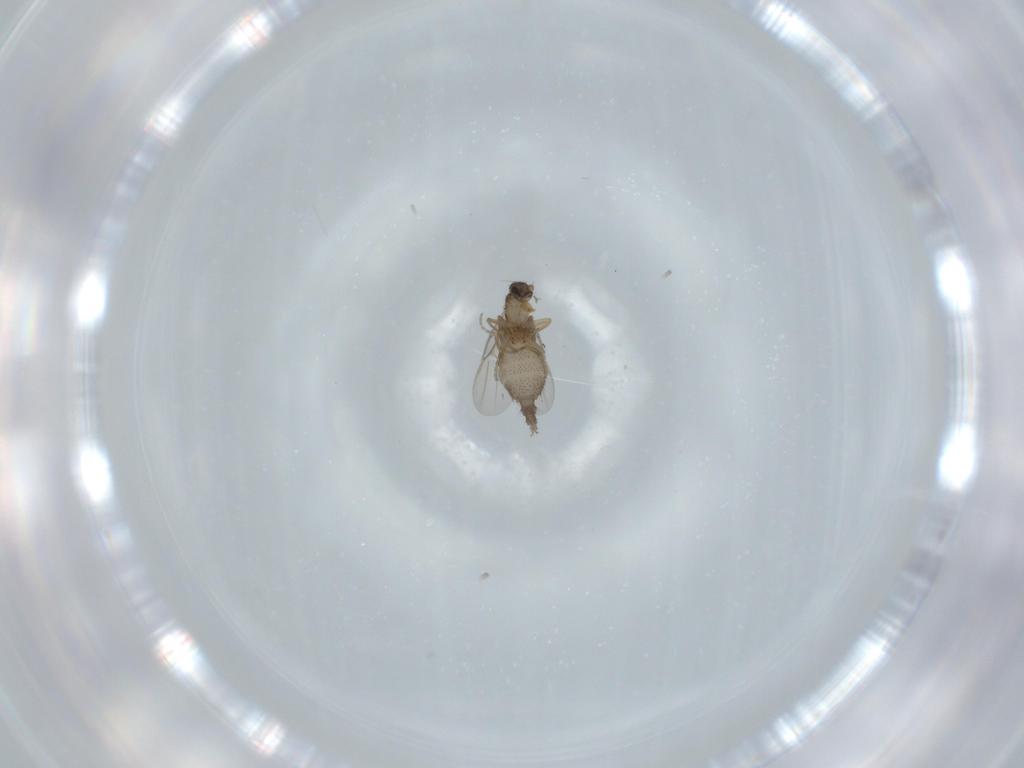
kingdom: Animalia
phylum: Arthropoda
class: Insecta
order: Diptera
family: Phoridae
